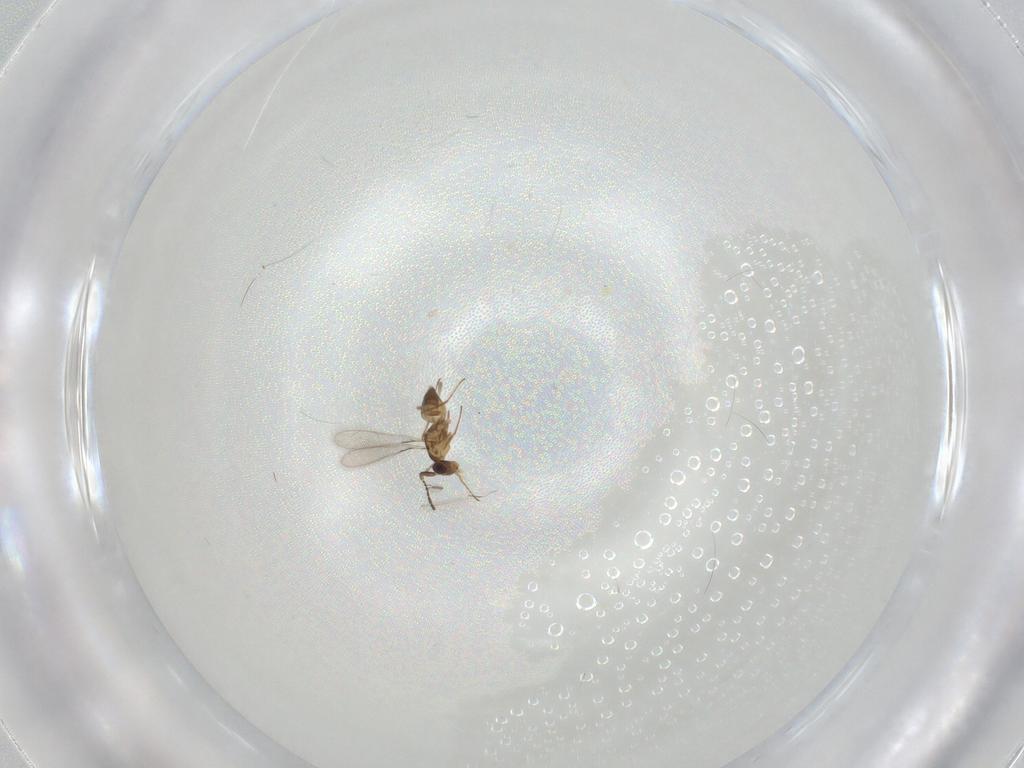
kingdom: Animalia
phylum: Arthropoda
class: Insecta
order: Hymenoptera
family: Mymaridae
